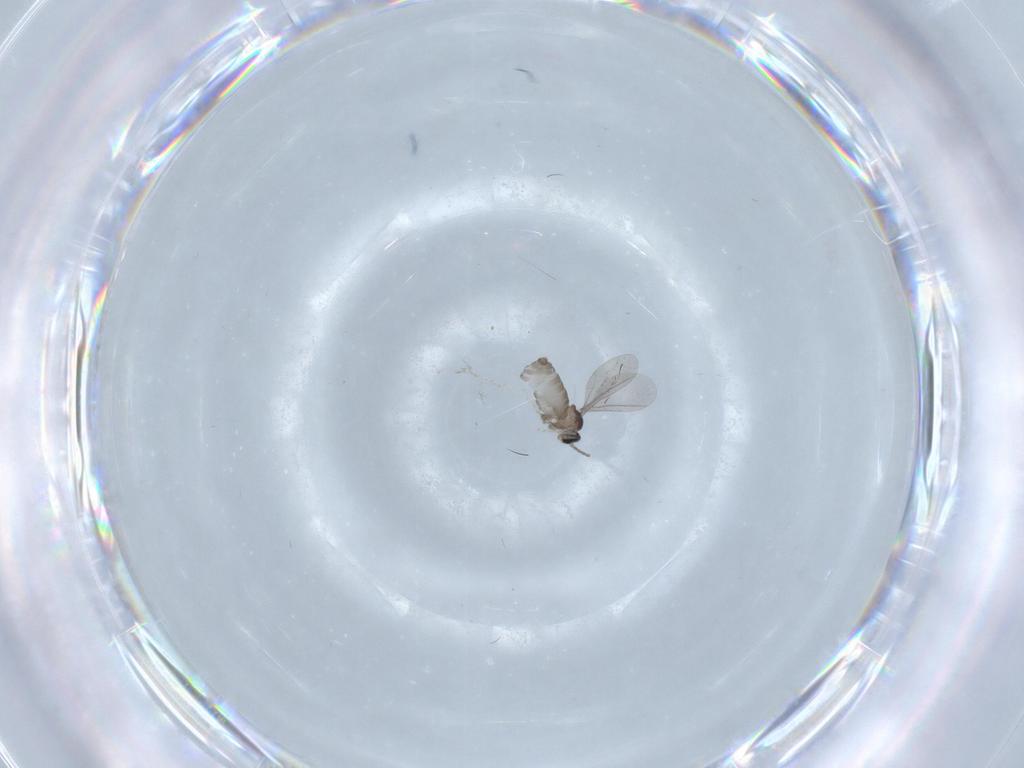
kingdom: Animalia
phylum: Arthropoda
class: Insecta
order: Diptera
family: Cecidomyiidae
